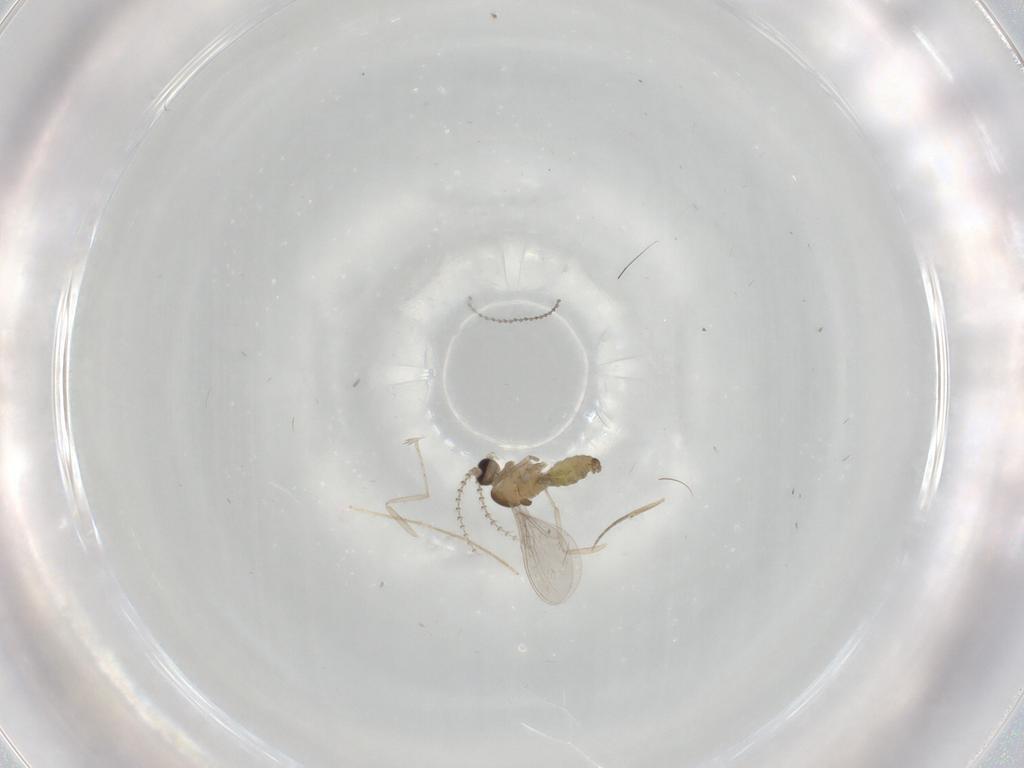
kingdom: Animalia
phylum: Arthropoda
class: Insecta
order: Diptera
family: Cecidomyiidae
